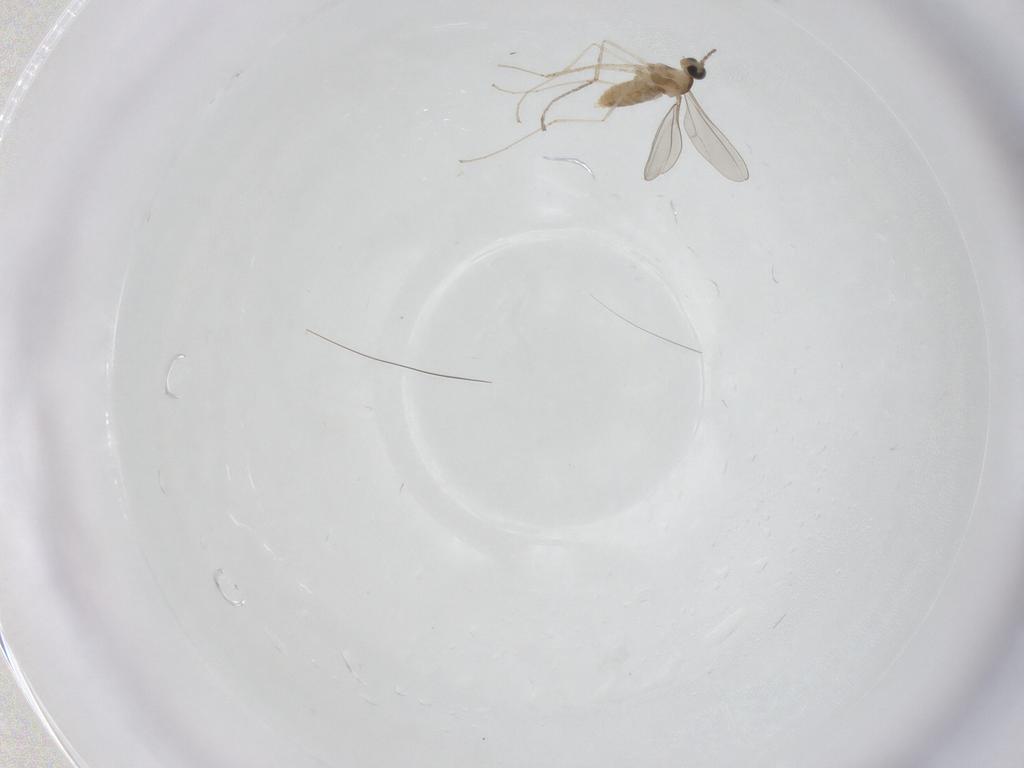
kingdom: Animalia
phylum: Arthropoda
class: Insecta
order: Diptera
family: Cecidomyiidae
